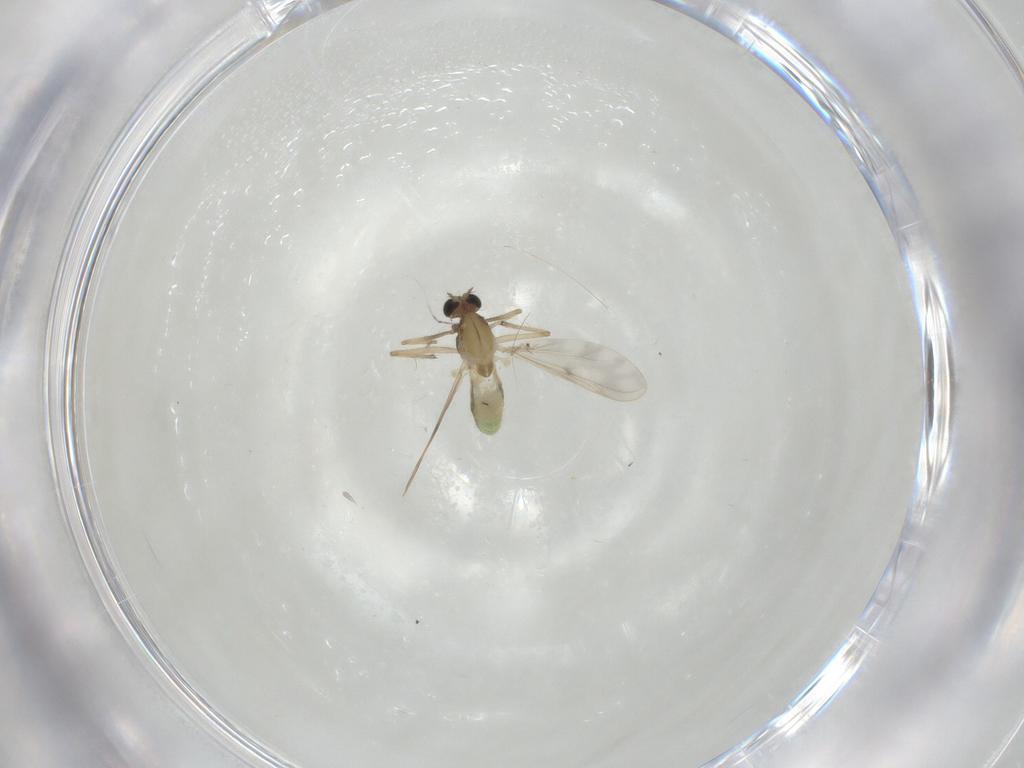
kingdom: Animalia
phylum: Arthropoda
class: Insecta
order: Diptera
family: Chironomidae
